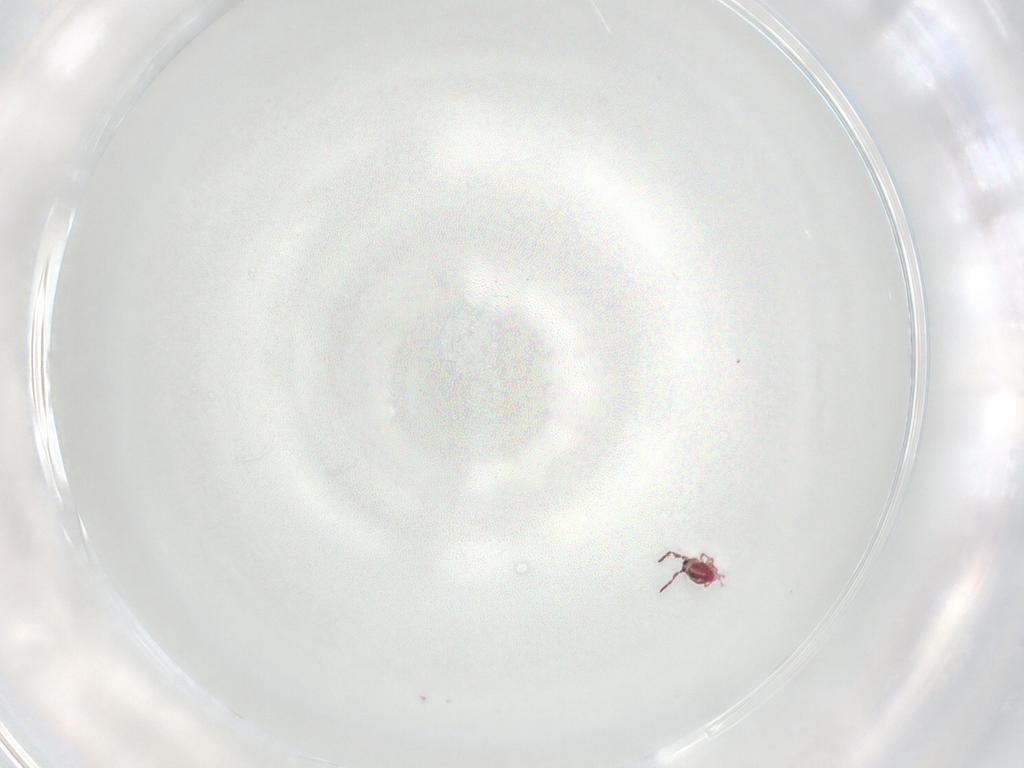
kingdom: Animalia
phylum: Arthropoda
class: Collembola
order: Symphypleona
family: Sminthurididae
